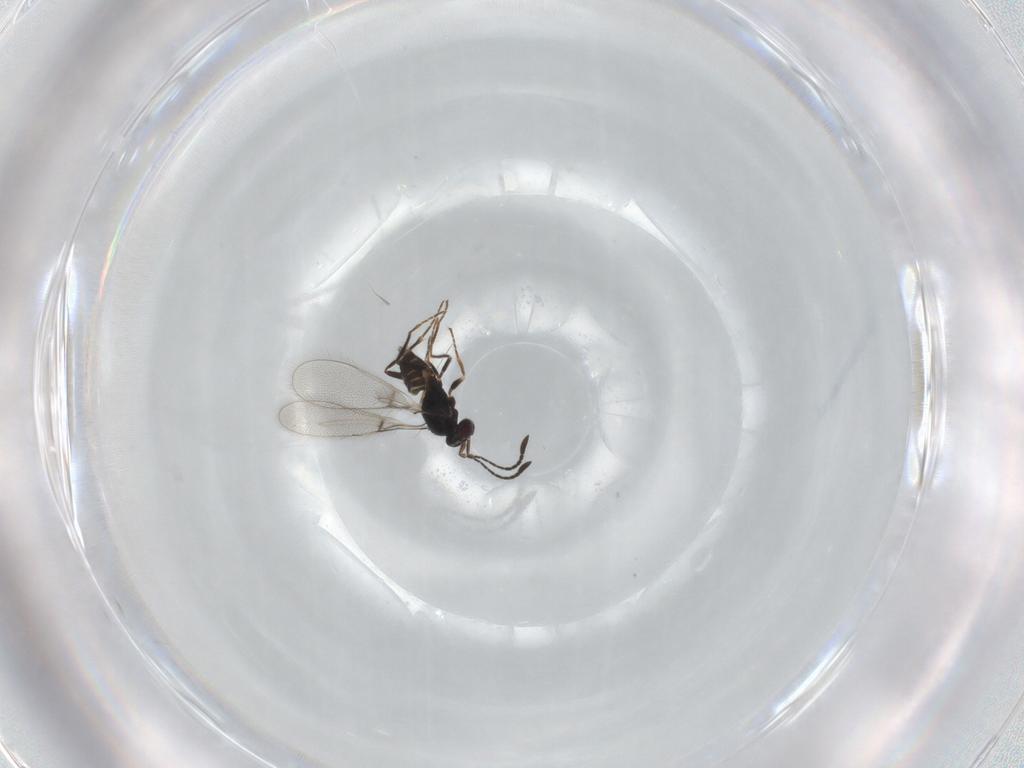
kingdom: Animalia
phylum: Arthropoda
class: Insecta
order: Hymenoptera
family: Mymaridae
